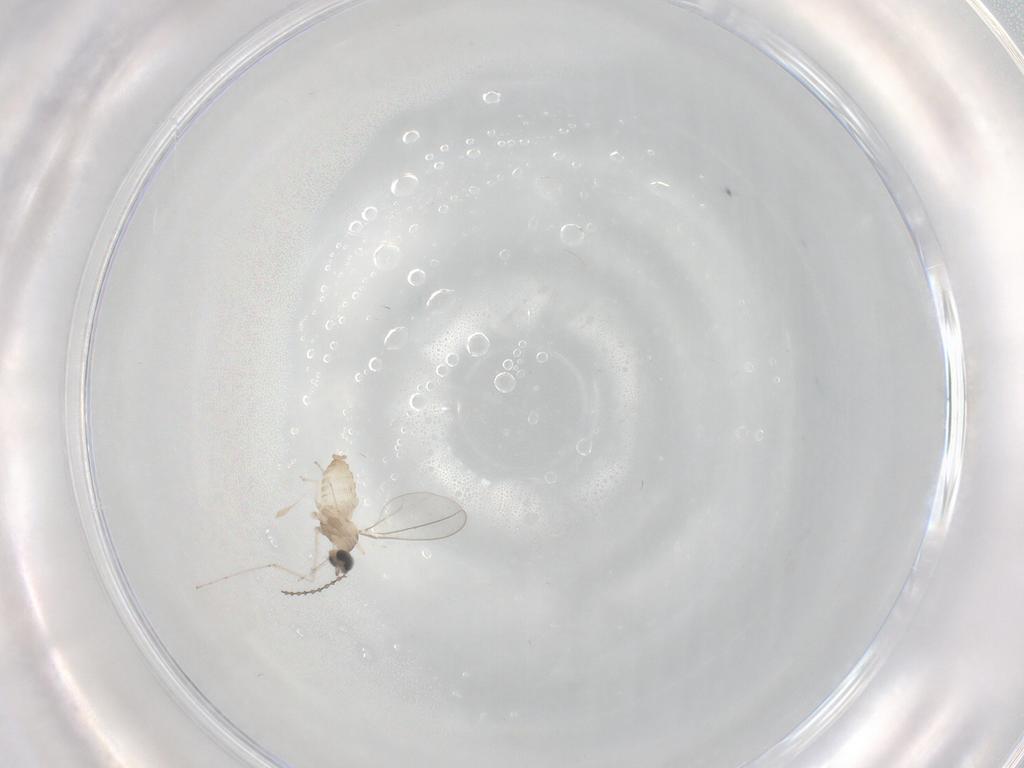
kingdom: Animalia
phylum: Arthropoda
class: Insecta
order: Diptera
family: Cecidomyiidae
